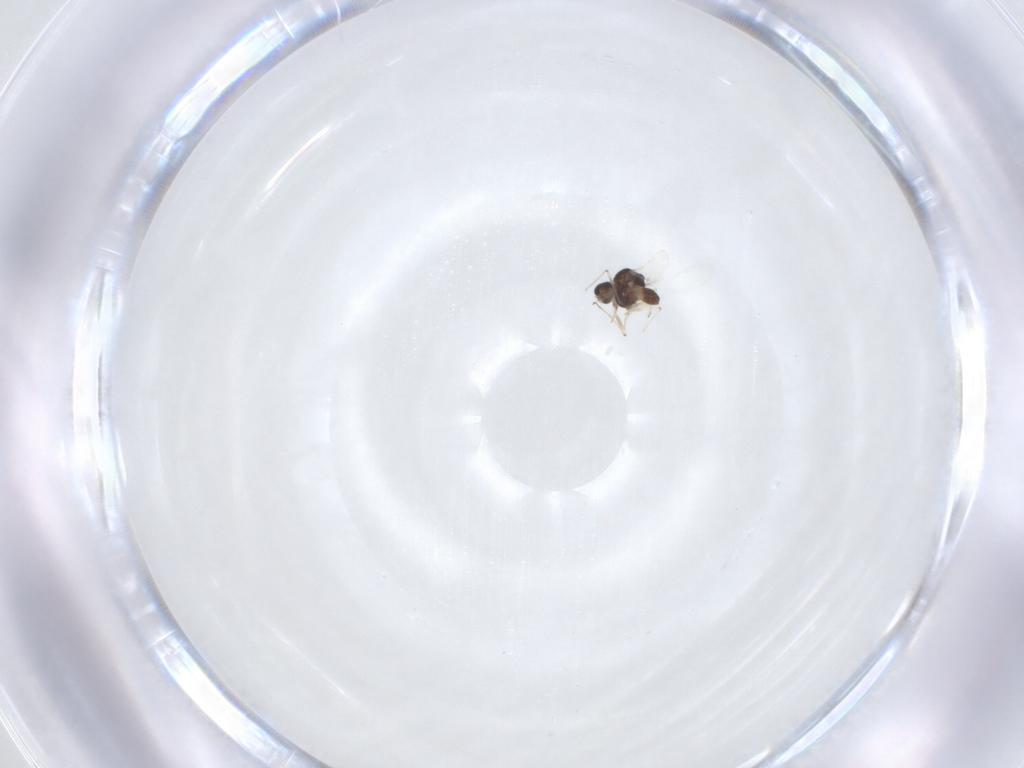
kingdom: Animalia
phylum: Arthropoda
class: Insecta
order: Diptera
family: Chironomidae
